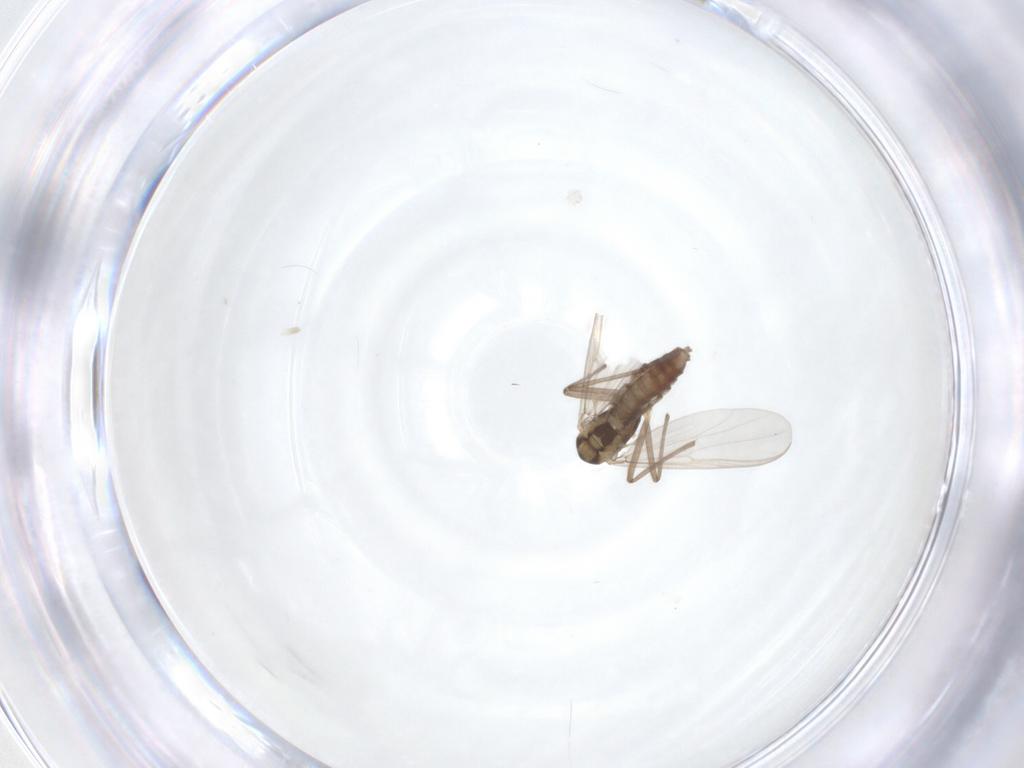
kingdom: Animalia
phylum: Arthropoda
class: Insecta
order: Diptera
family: Chironomidae
